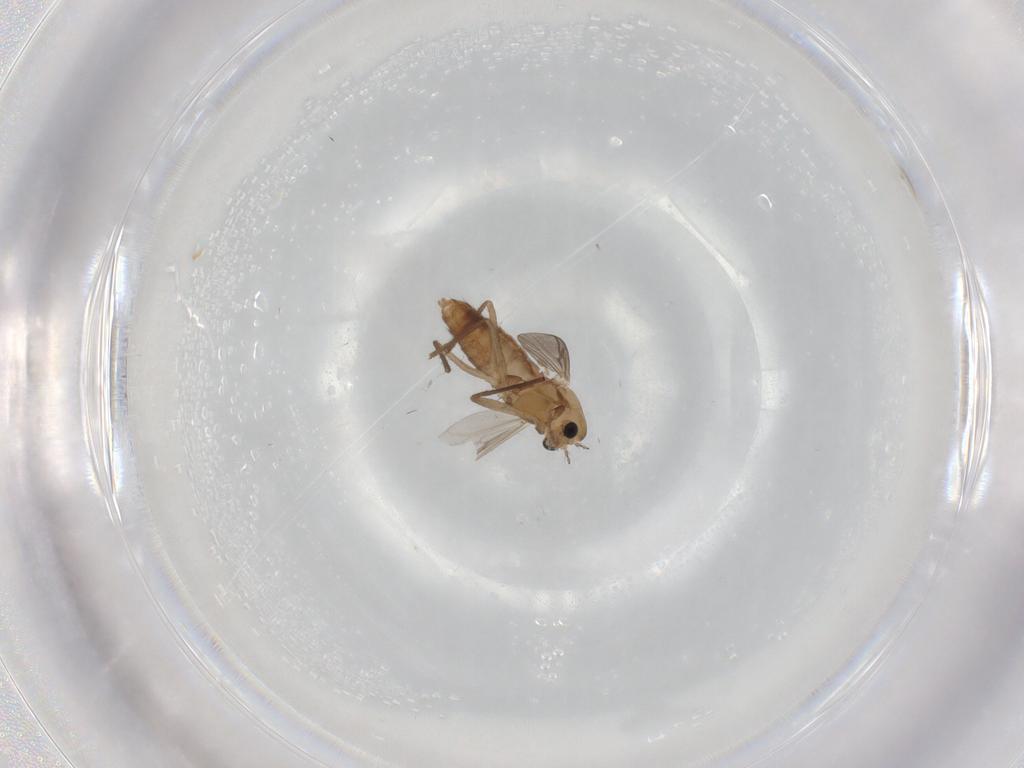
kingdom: Animalia
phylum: Arthropoda
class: Insecta
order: Diptera
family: Chironomidae
